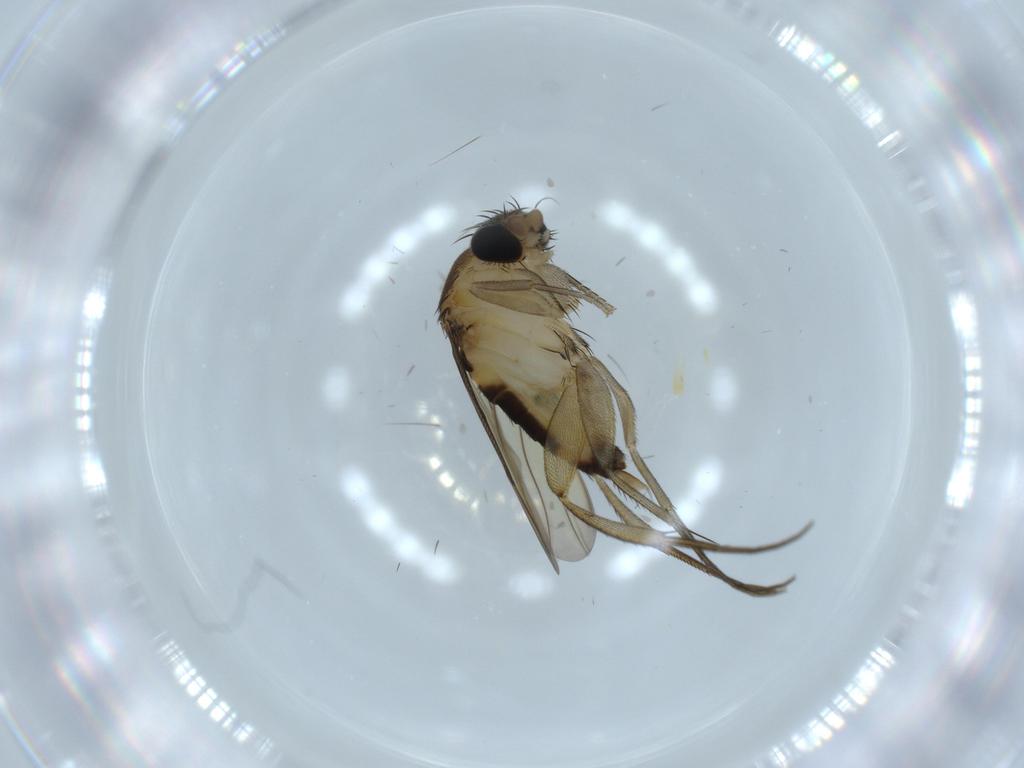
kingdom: Animalia
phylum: Arthropoda
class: Insecta
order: Diptera
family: Chironomidae
